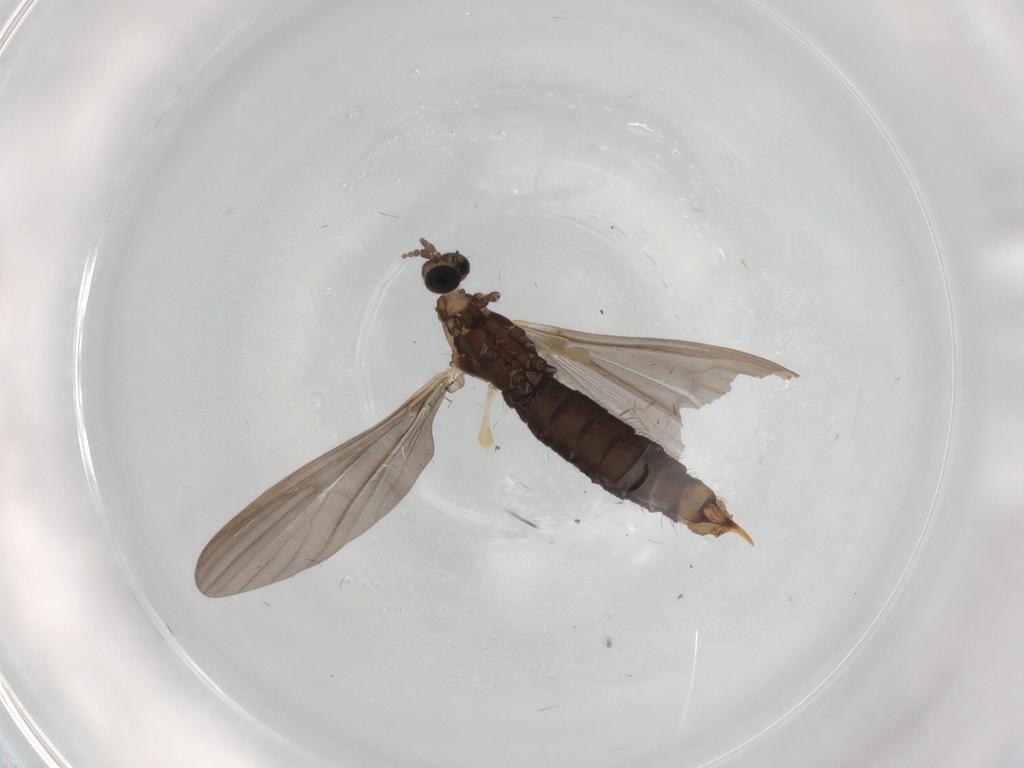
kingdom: Animalia
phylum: Arthropoda
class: Insecta
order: Diptera
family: Limoniidae
